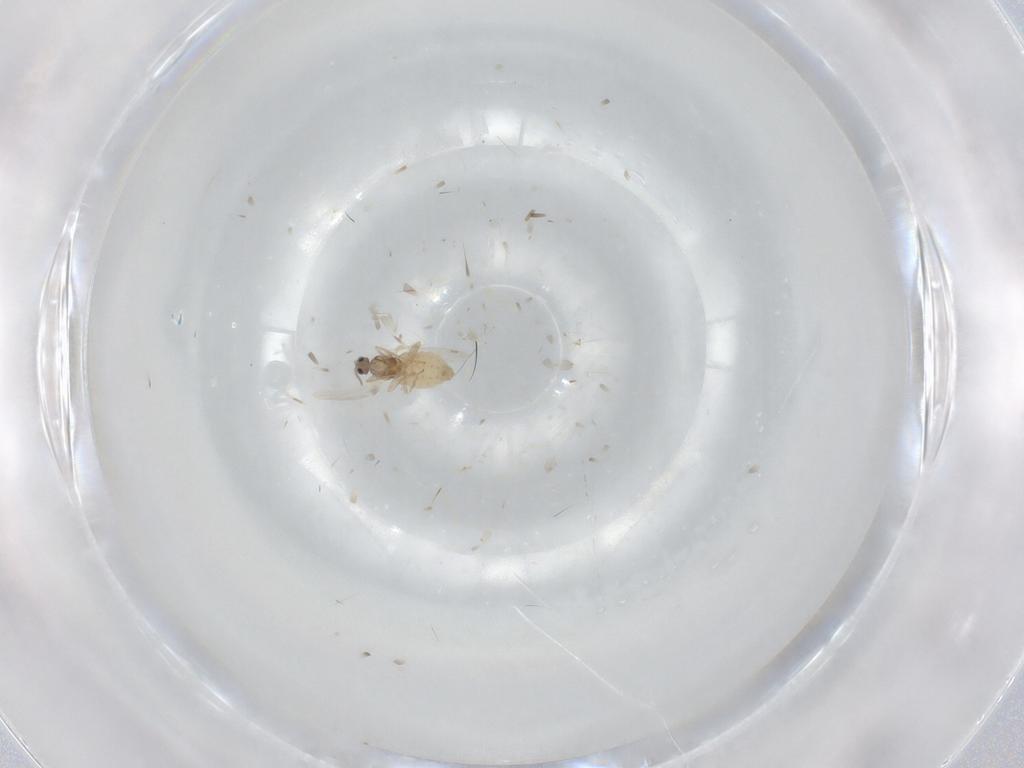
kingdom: Animalia
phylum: Arthropoda
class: Insecta
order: Diptera
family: Cecidomyiidae
